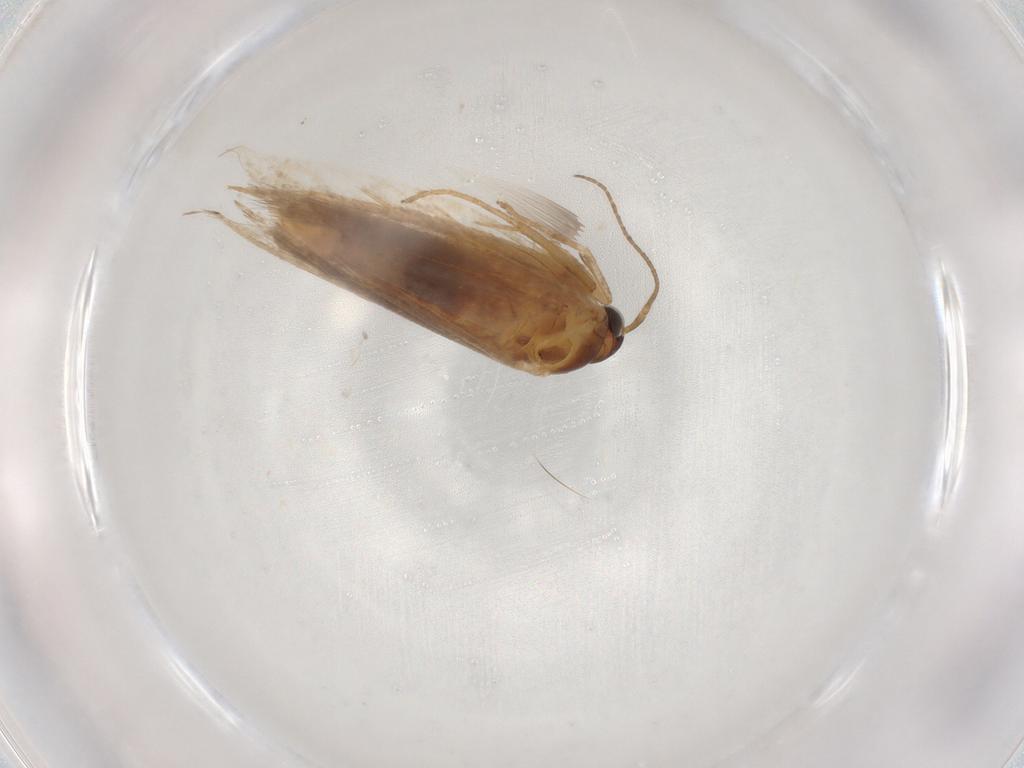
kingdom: Animalia
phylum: Arthropoda
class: Insecta
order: Lepidoptera
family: Gelechiidae
